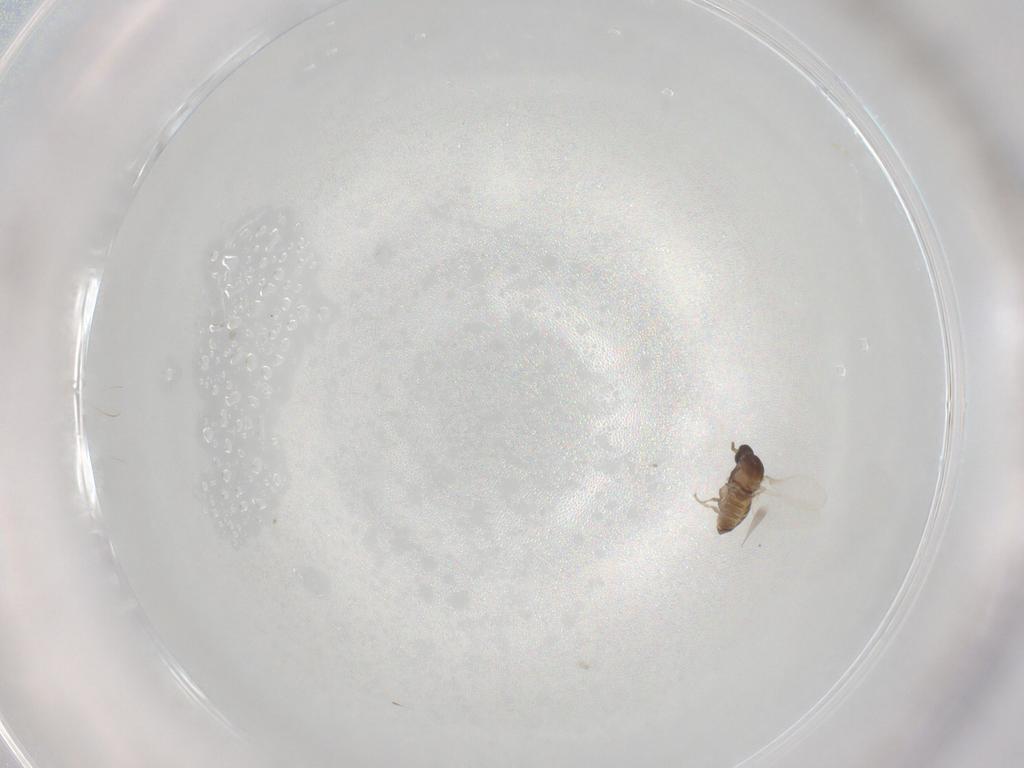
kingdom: Animalia
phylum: Arthropoda
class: Insecta
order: Diptera
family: Cecidomyiidae
